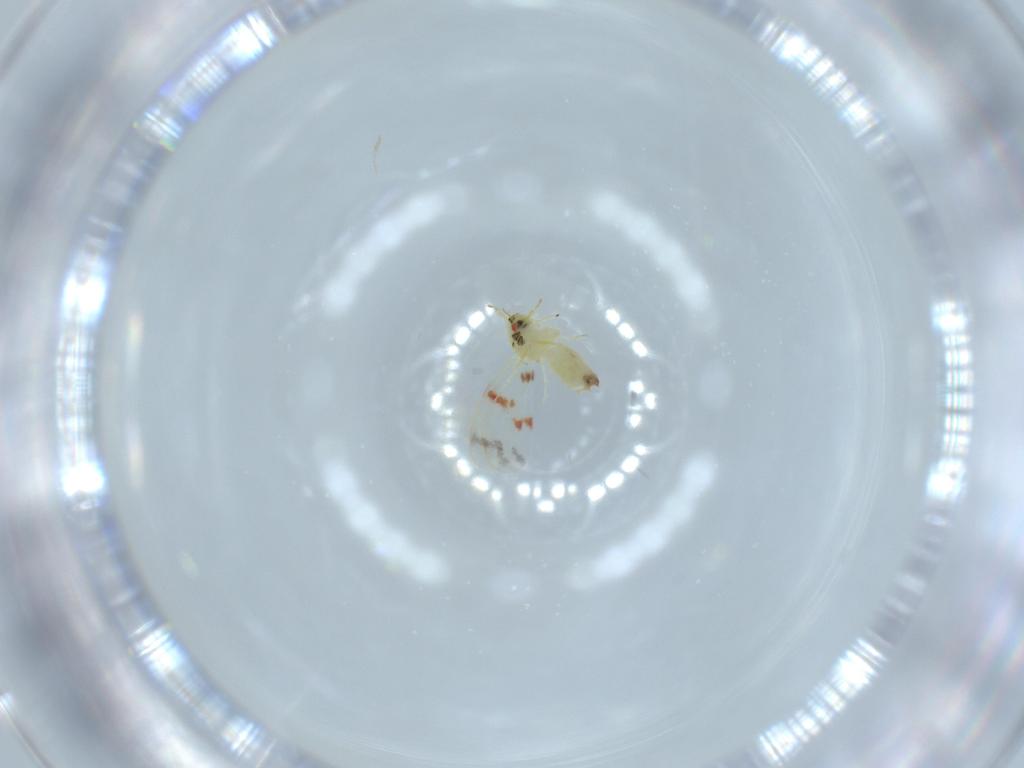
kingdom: Animalia
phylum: Arthropoda
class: Insecta
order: Hemiptera
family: Aleyrodidae
